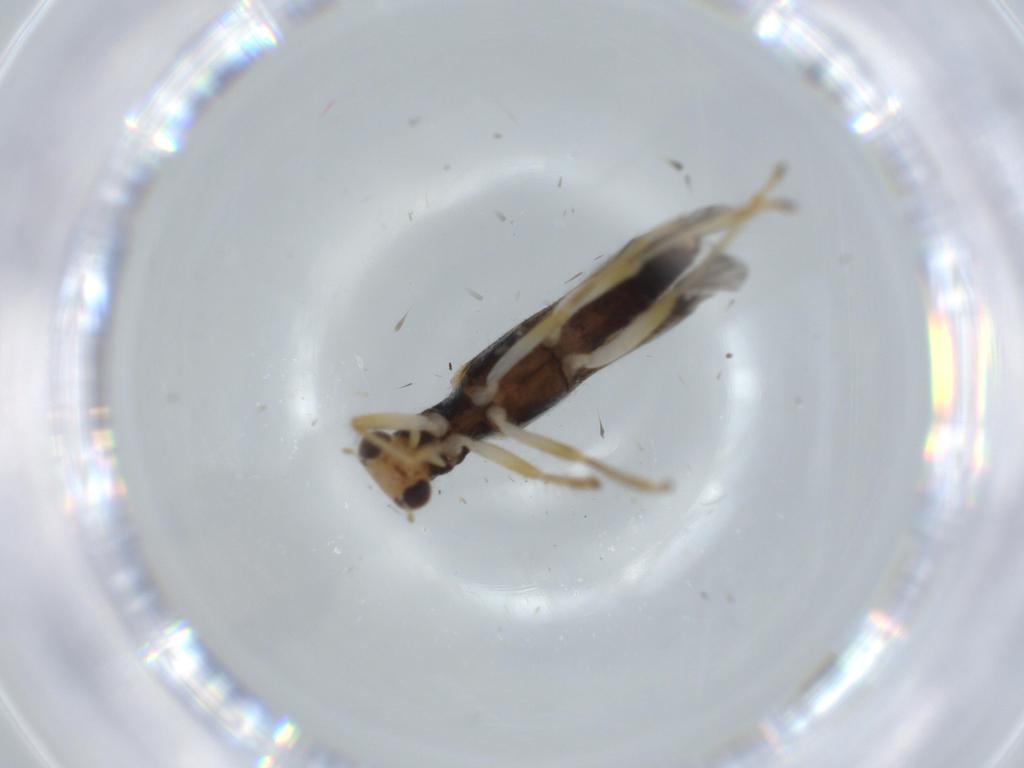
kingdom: Animalia
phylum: Arthropoda
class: Insecta
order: Coleoptera
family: Cleridae
